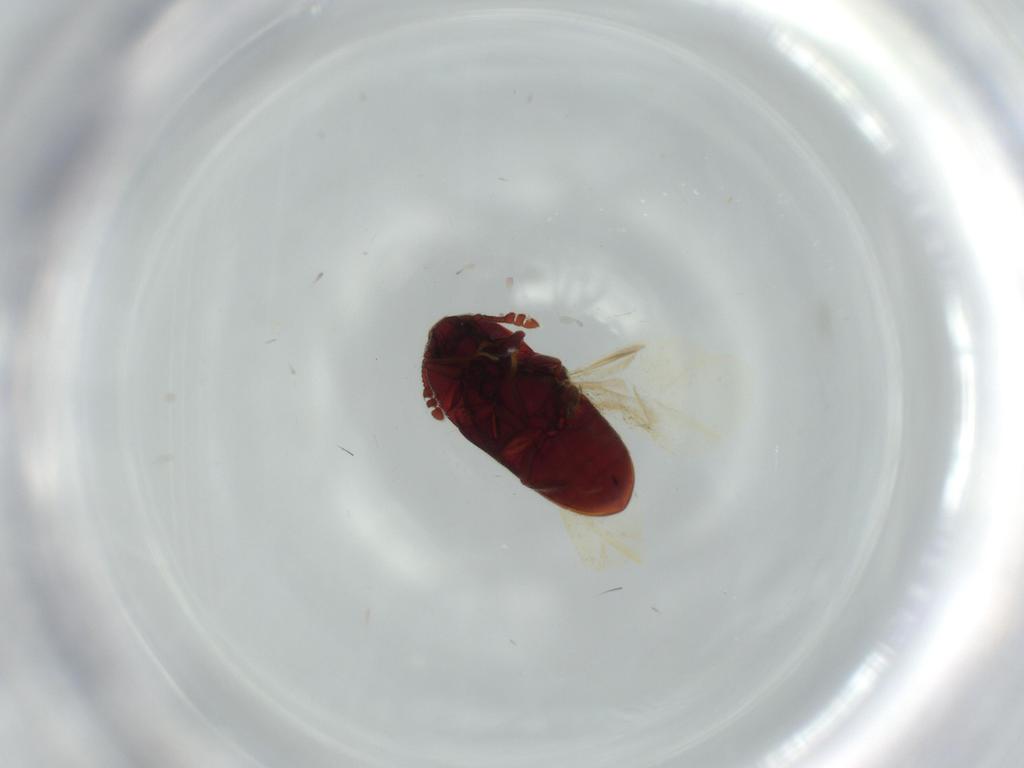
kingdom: Animalia
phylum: Arthropoda
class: Insecta
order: Coleoptera
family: Throscidae
